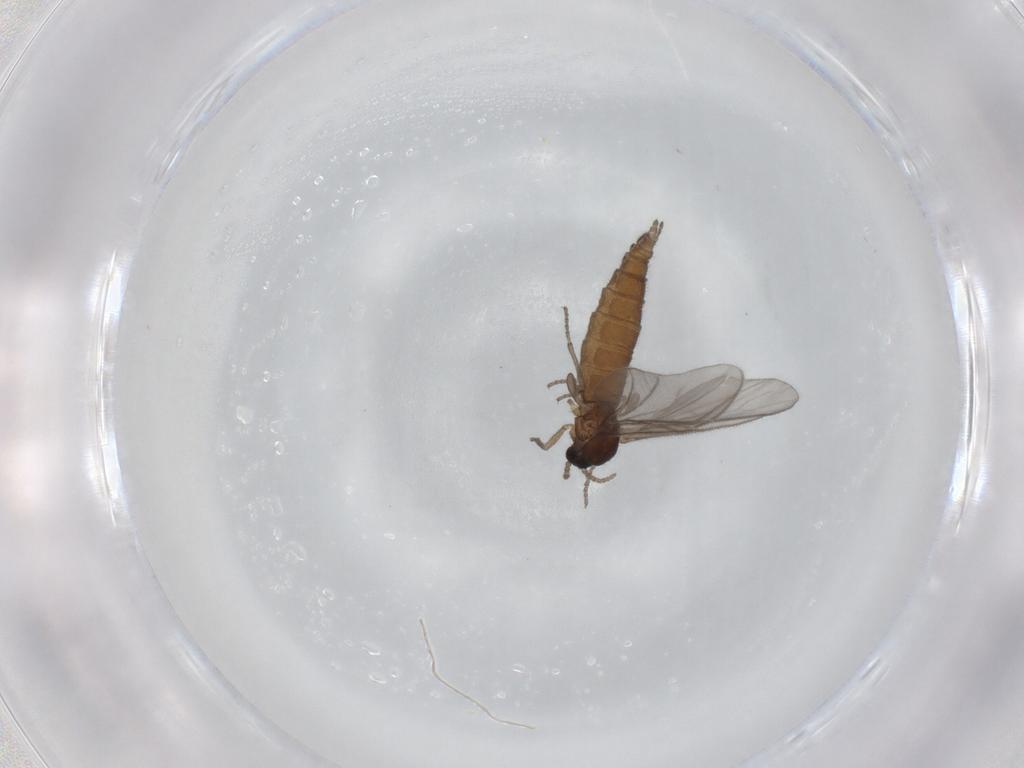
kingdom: Animalia
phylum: Arthropoda
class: Insecta
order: Diptera
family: Sciaridae
